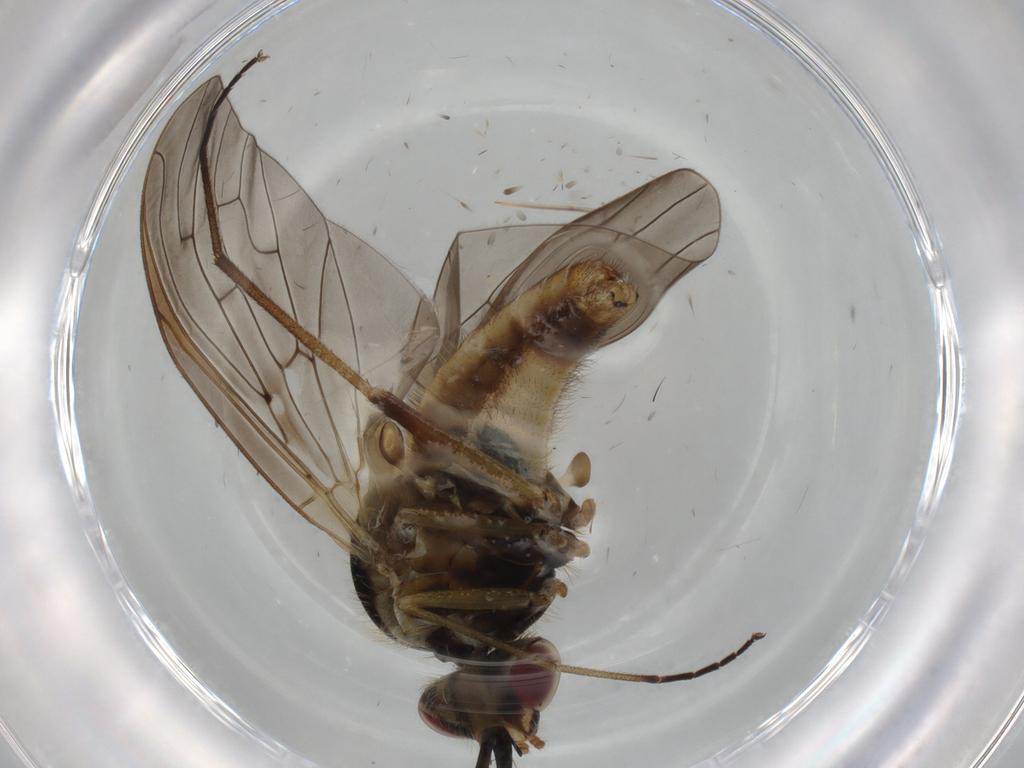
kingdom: Animalia
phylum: Arthropoda
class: Insecta
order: Diptera
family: Bombyliidae
